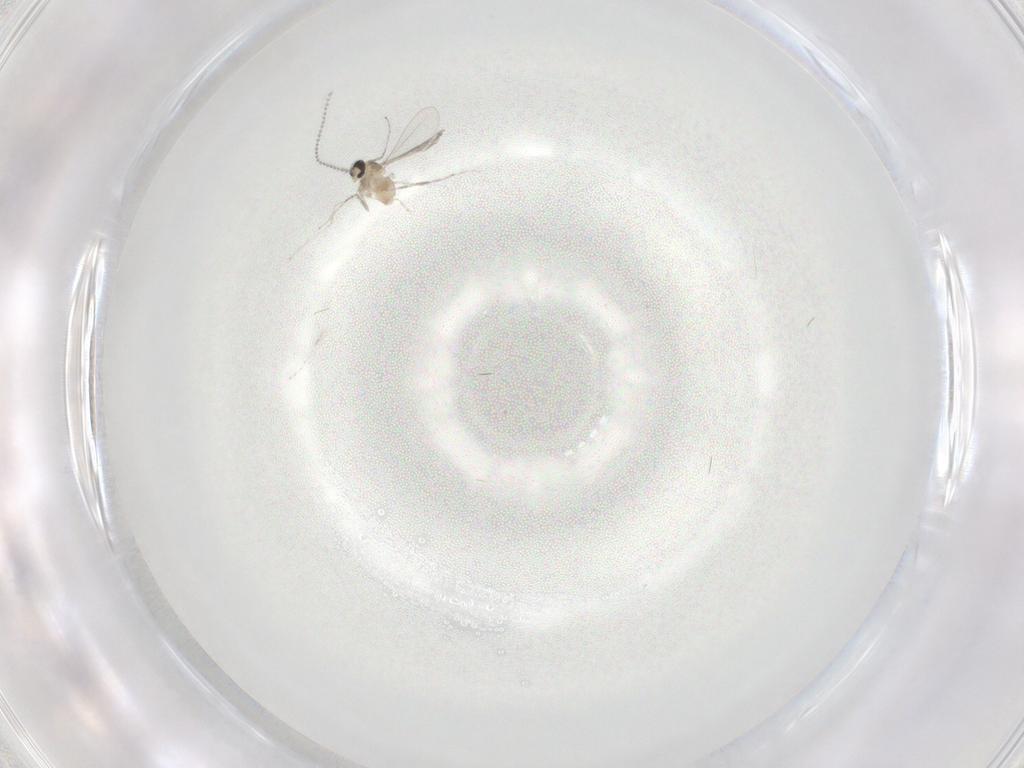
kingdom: Animalia
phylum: Arthropoda
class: Insecta
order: Diptera
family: Cecidomyiidae
